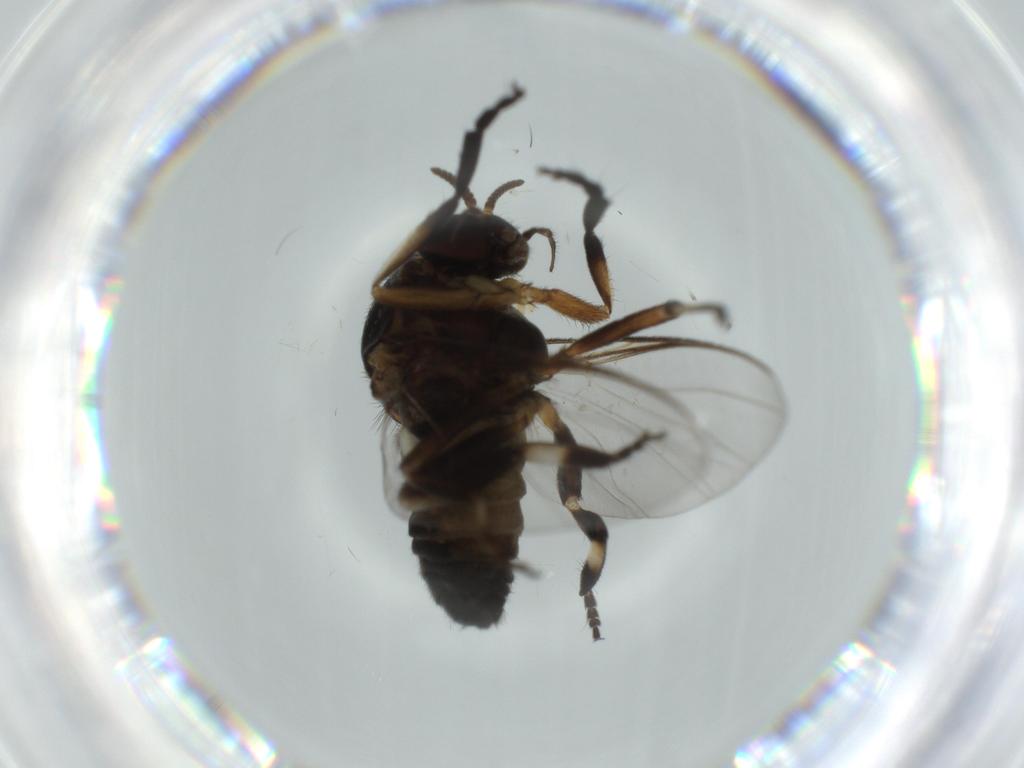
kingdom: Animalia
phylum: Arthropoda
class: Insecta
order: Diptera
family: Milichiidae
